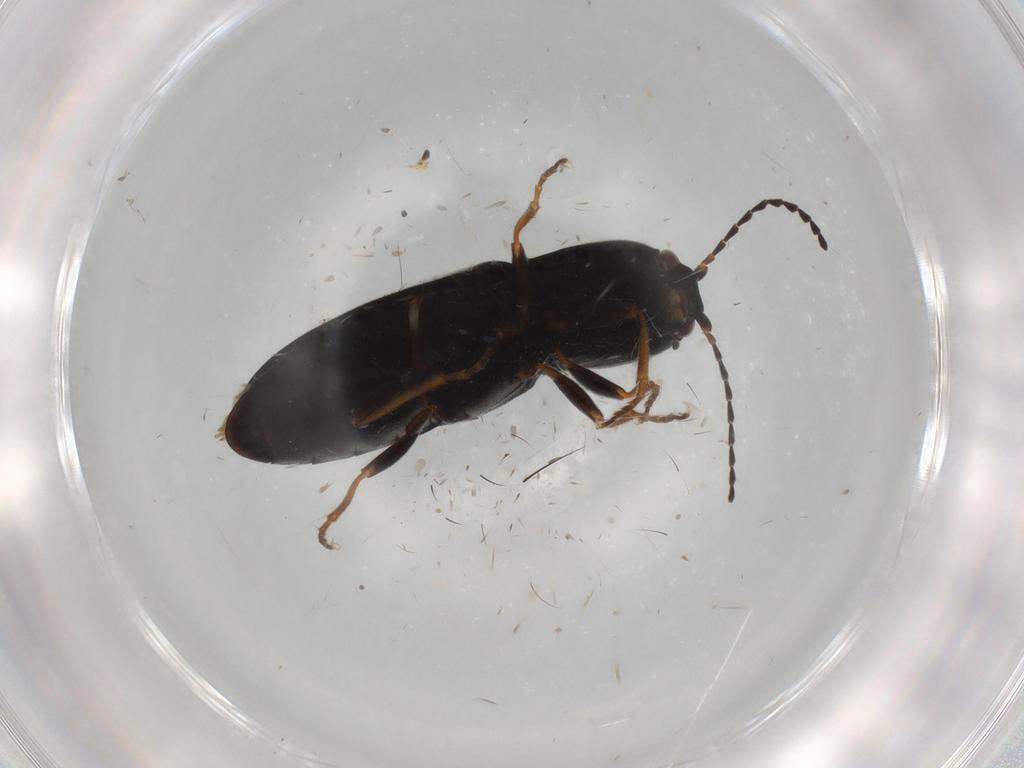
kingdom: Animalia
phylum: Arthropoda
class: Insecta
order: Coleoptera
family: Elateridae
